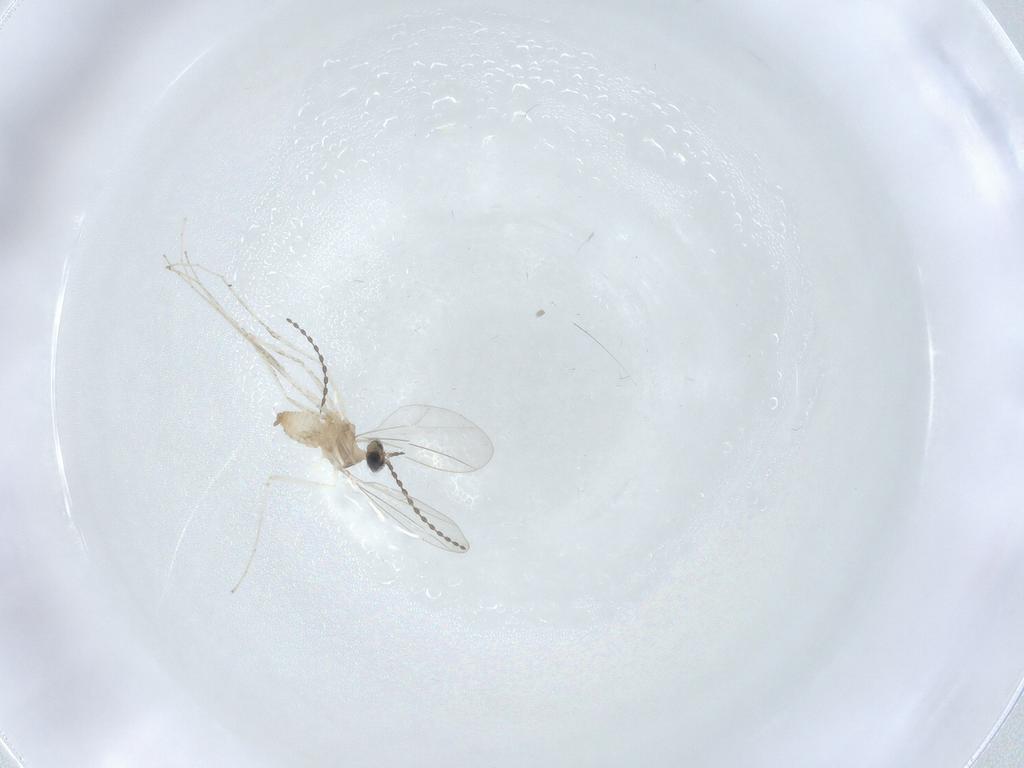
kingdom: Animalia
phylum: Arthropoda
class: Insecta
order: Diptera
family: Cecidomyiidae
